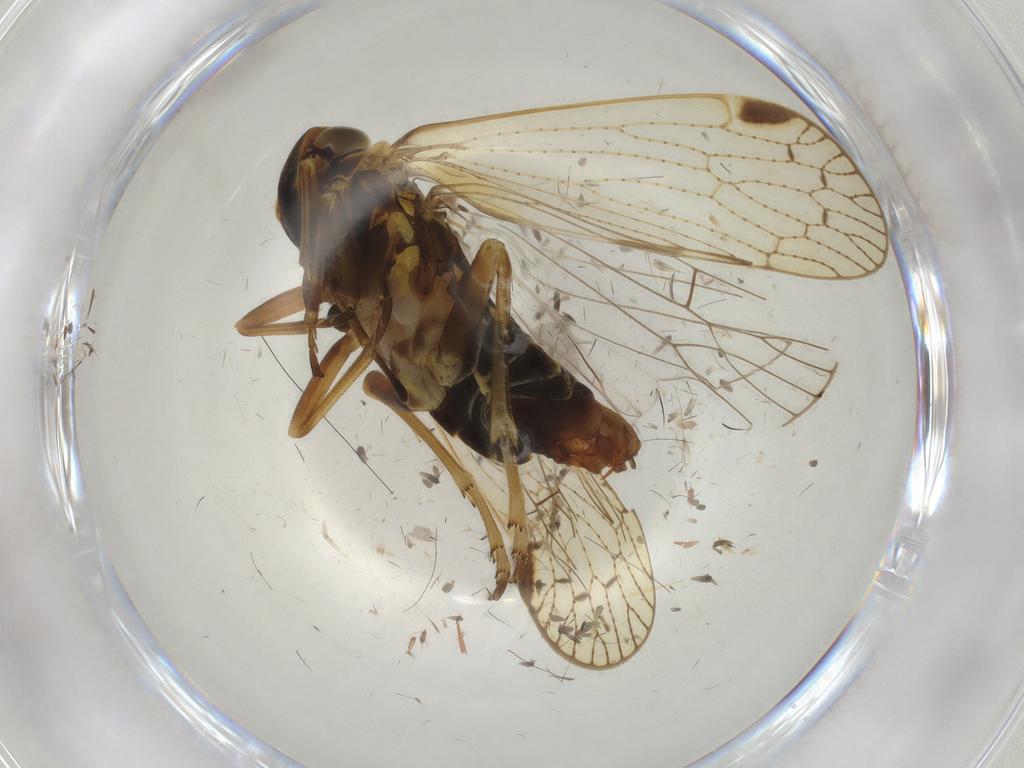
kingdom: Animalia
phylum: Arthropoda
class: Insecta
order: Hemiptera
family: Cixiidae
